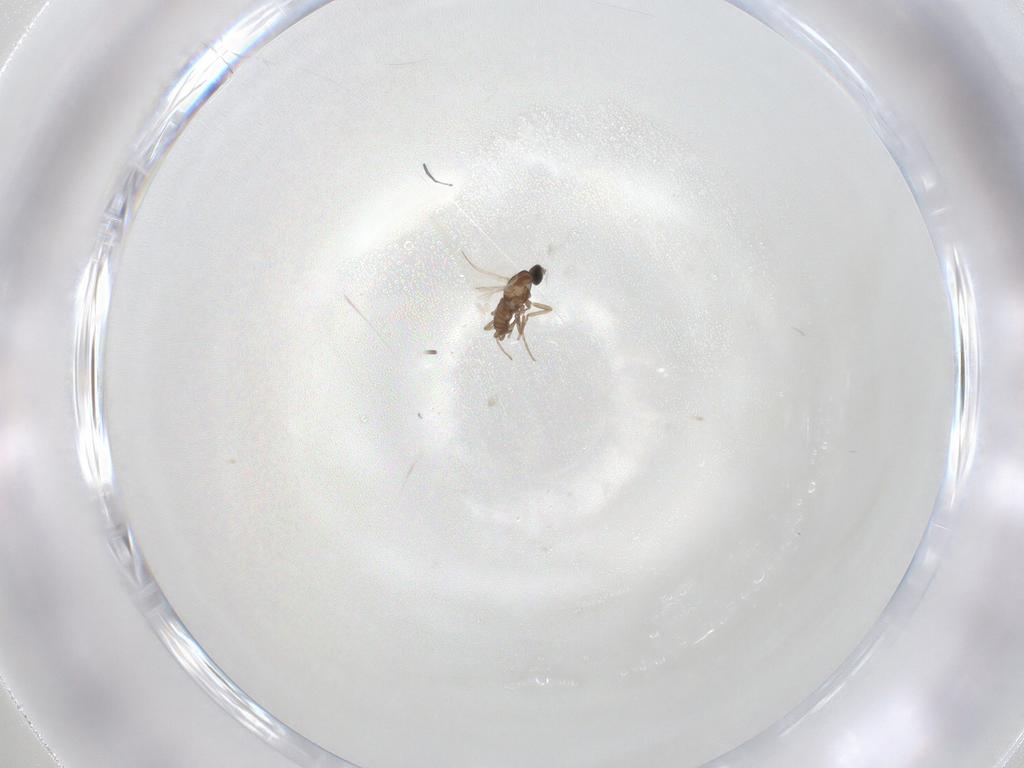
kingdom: Animalia
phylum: Arthropoda
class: Insecta
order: Diptera
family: Cecidomyiidae
